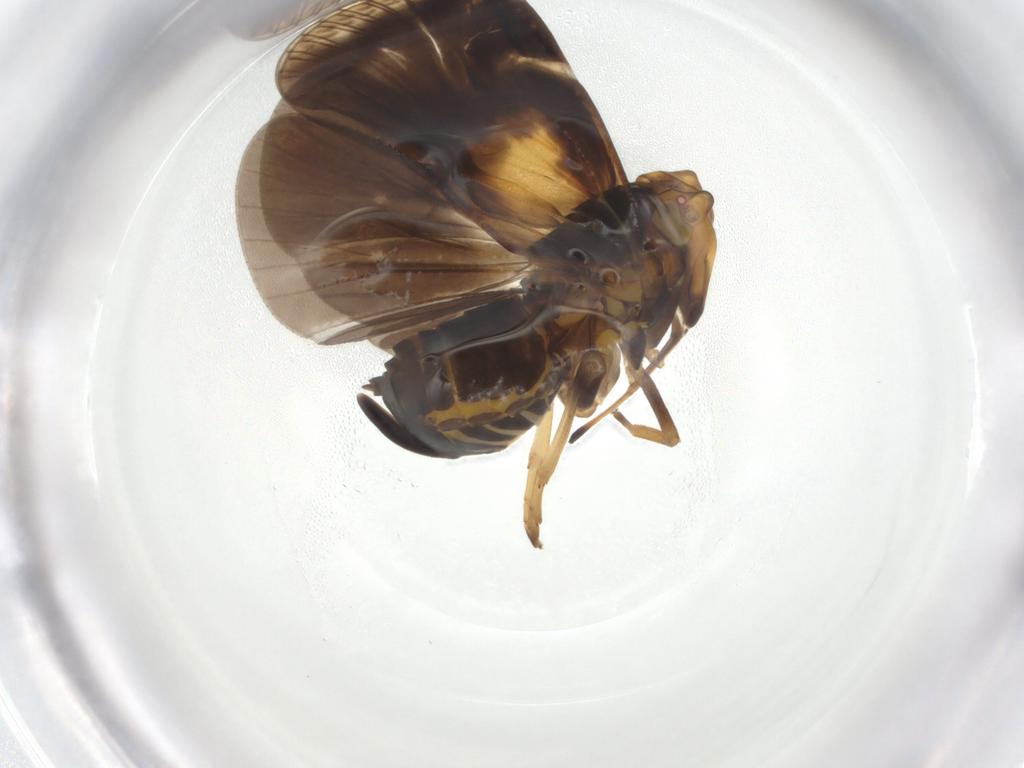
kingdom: Animalia
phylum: Arthropoda
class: Insecta
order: Hemiptera
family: Cixiidae
